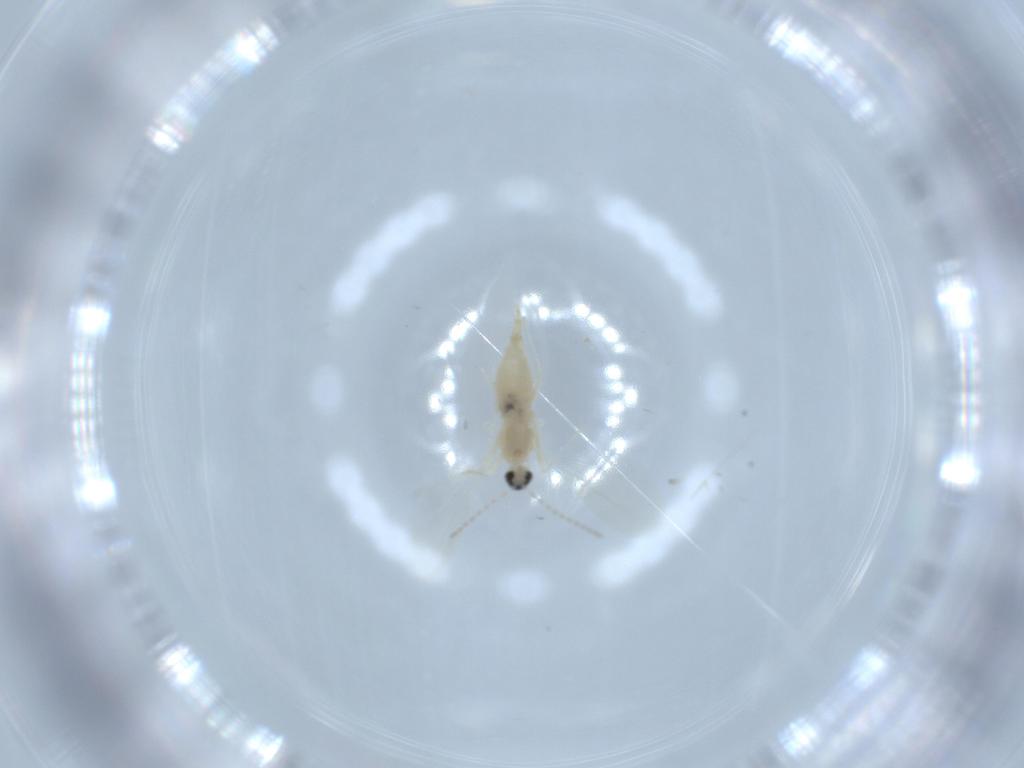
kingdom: Animalia
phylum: Arthropoda
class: Insecta
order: Diptera
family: Cecidomyiidae
